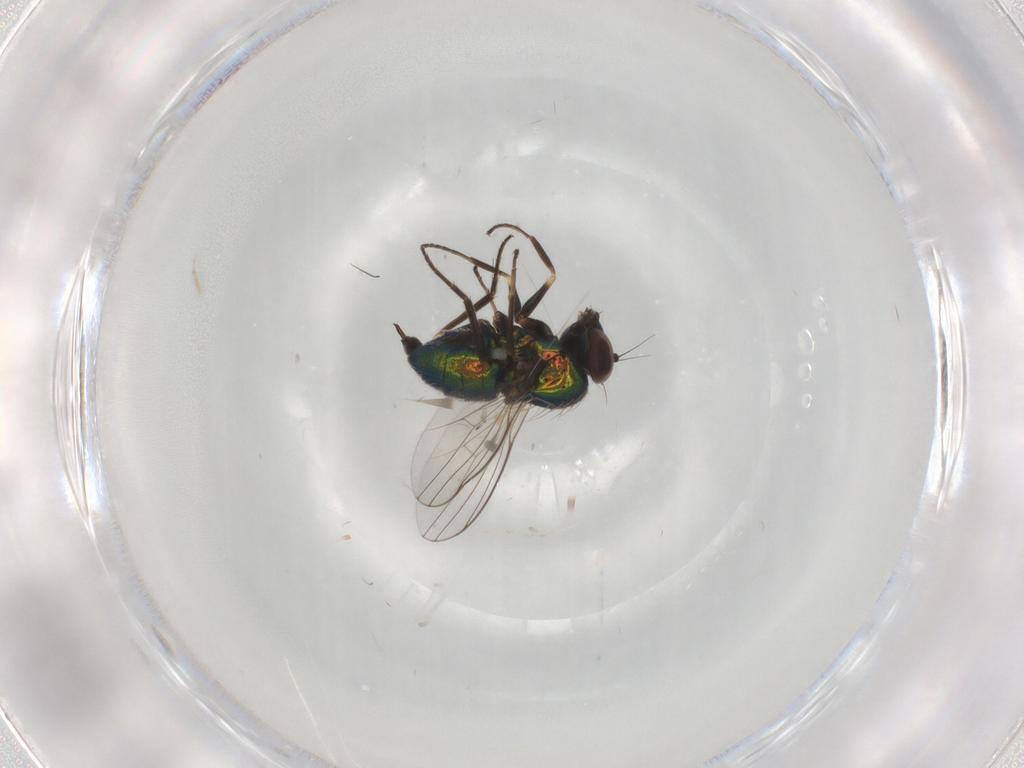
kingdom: Animalia
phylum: Arthropoda
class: Insecta
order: Diptera
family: Dolichopodidae
